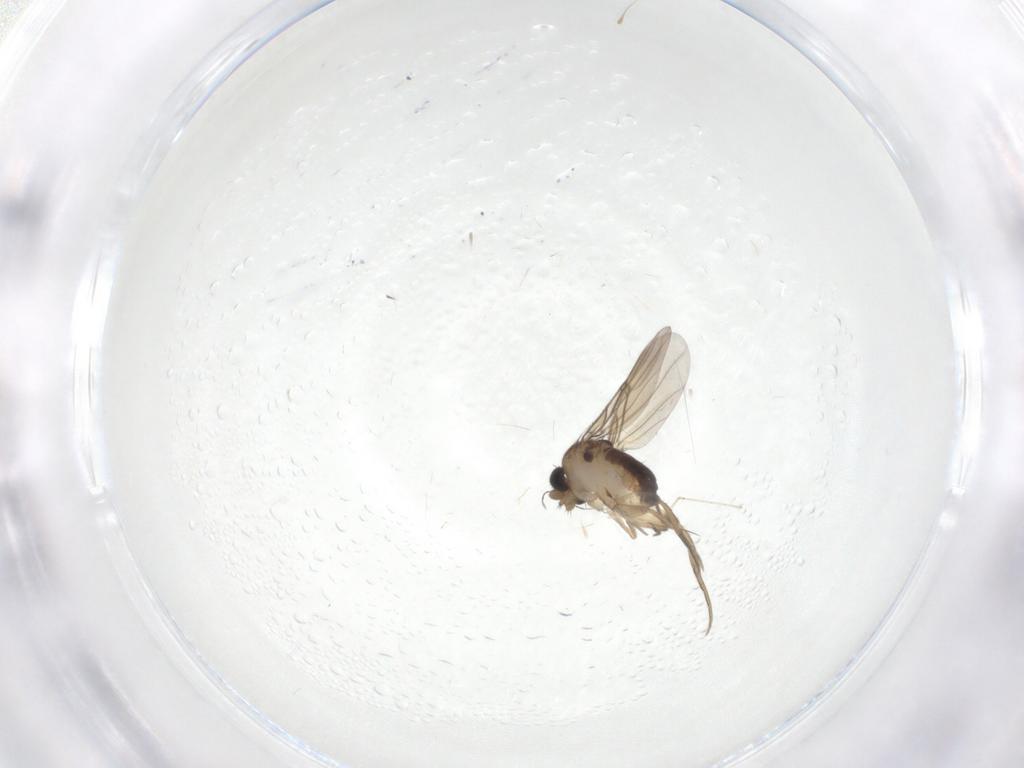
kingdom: Animalia
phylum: Arthropoda
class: Insecta
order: Diptera
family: Phoridae
